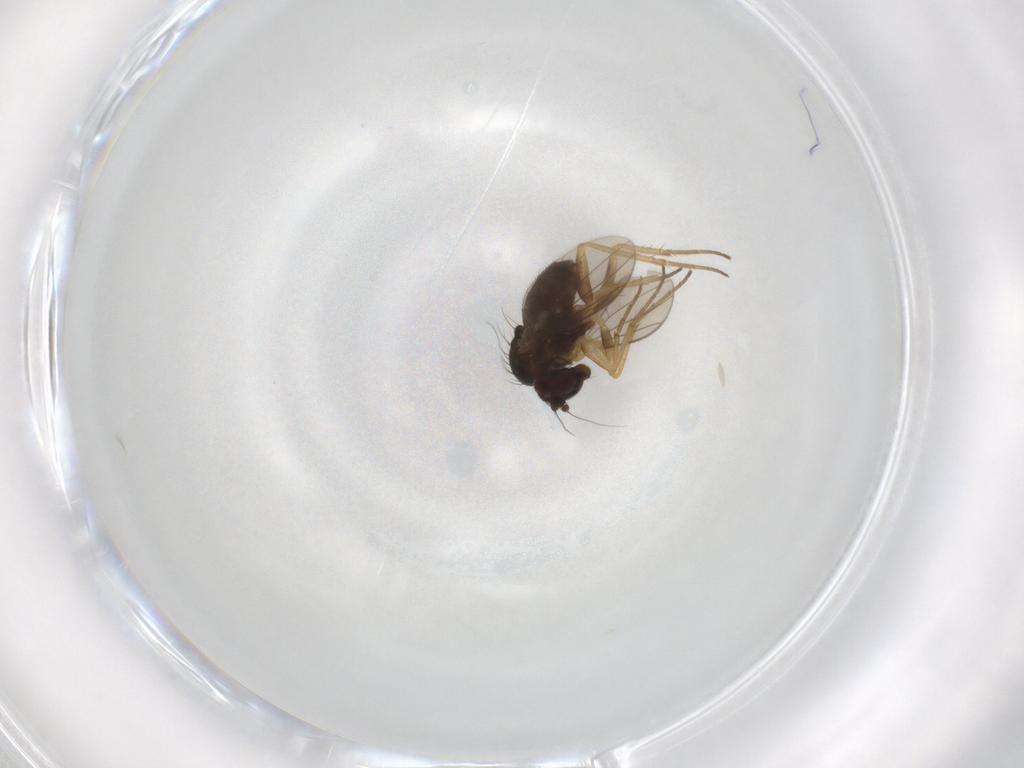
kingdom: Animalia
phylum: Arthropoda
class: Insecta
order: Diptera
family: Dolichopodidae
